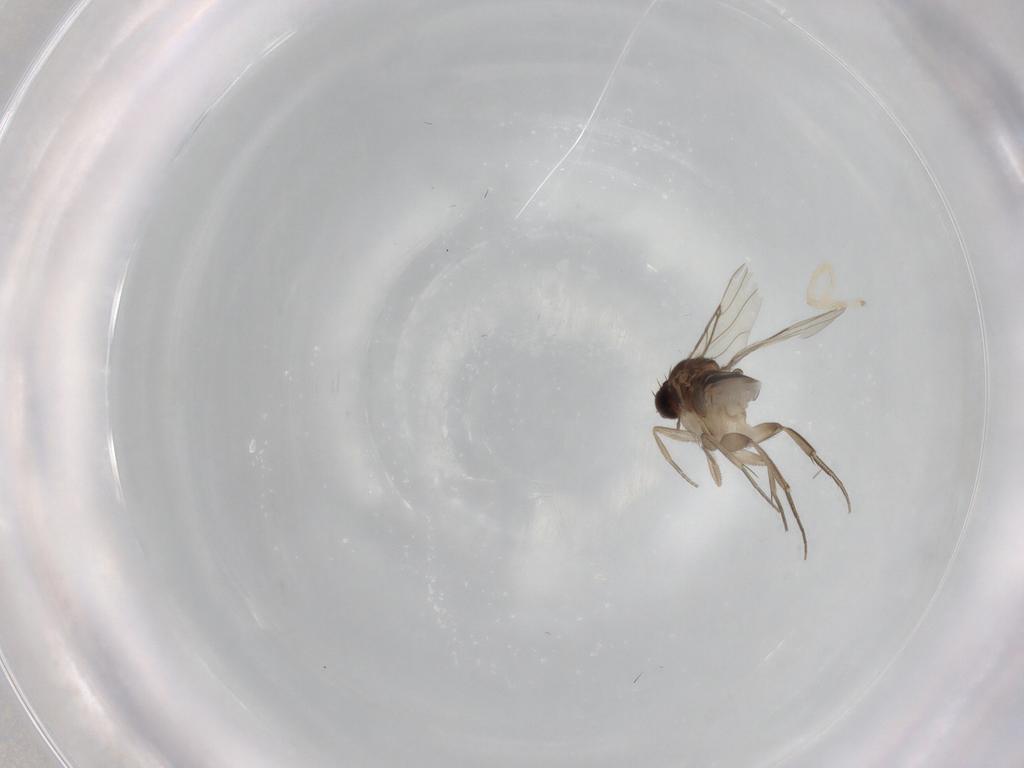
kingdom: Animalia
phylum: Arthropoda
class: Insecta
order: Diptera
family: Phoridae
